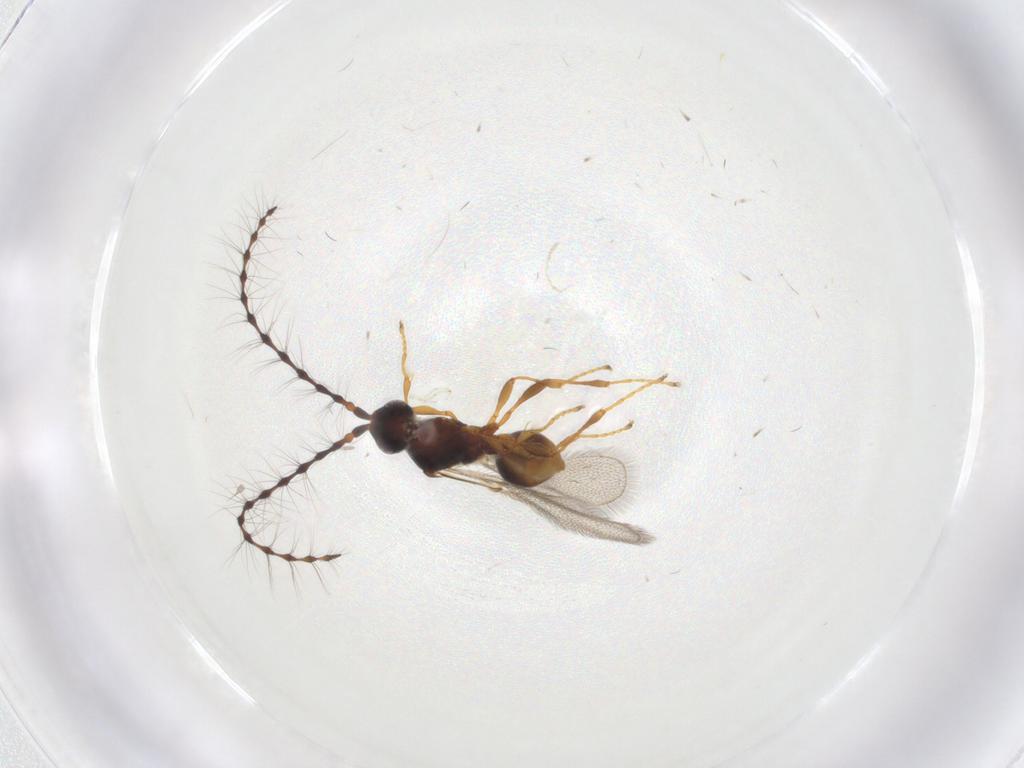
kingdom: Animalia
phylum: Arthropoda
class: Insecta
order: Hymenoptera
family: Diapriidae
